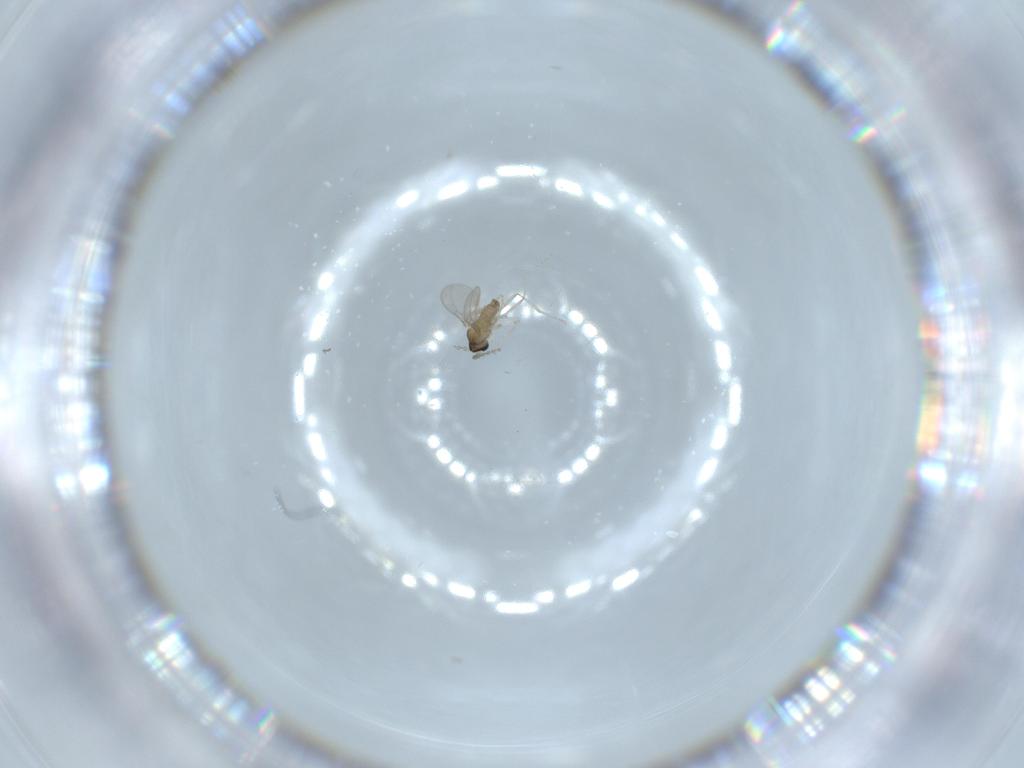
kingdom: Animalia
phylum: Arthropoda
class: Insecta
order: Diptera
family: Cecidomyiidae
